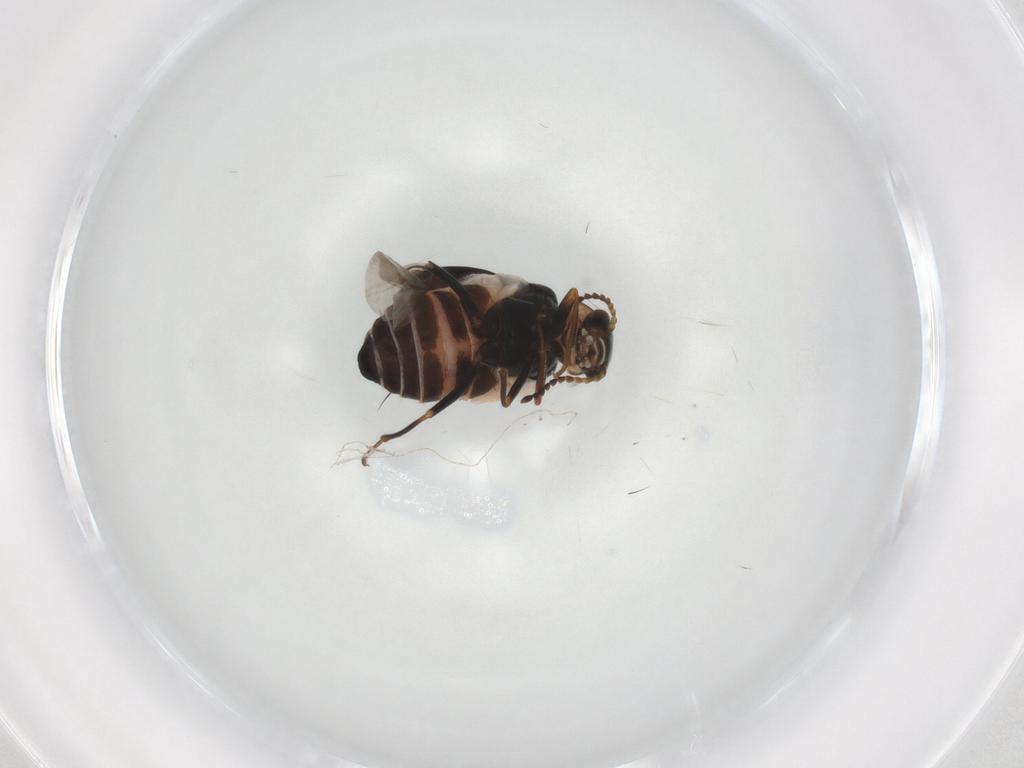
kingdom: Animalia
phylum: Arthropoda
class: Insecta
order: Coleoptera
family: Melyridae
